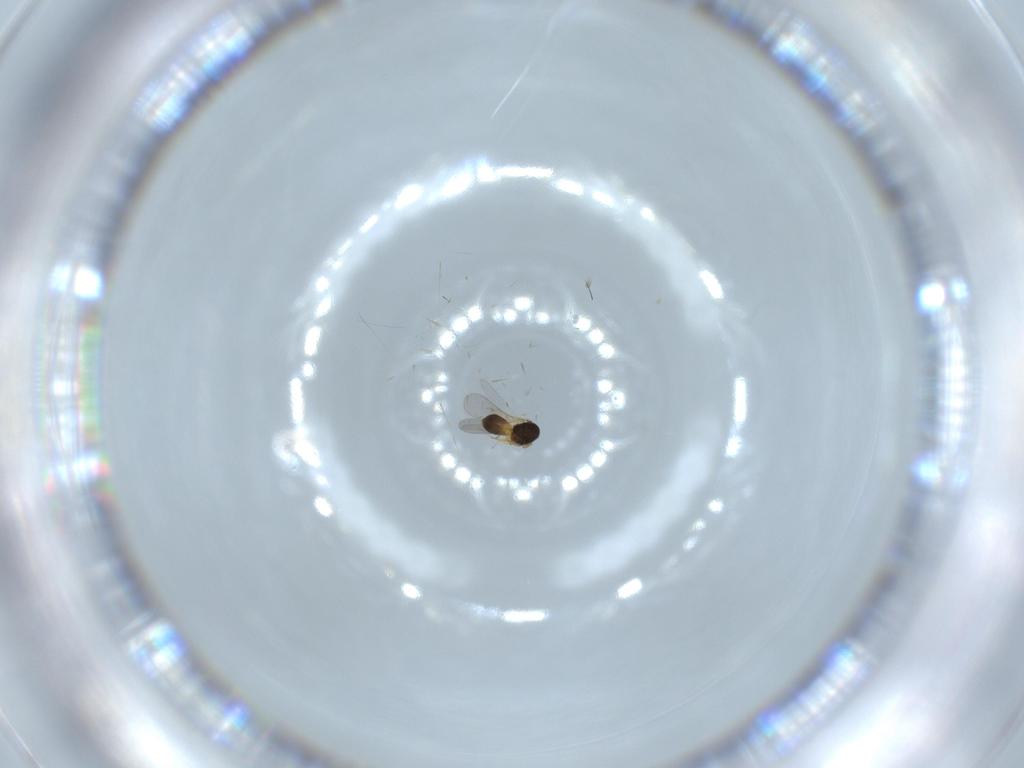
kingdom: Animalia
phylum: Arthropoda
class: Insecta
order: Hymenoptera
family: Scelionidae
